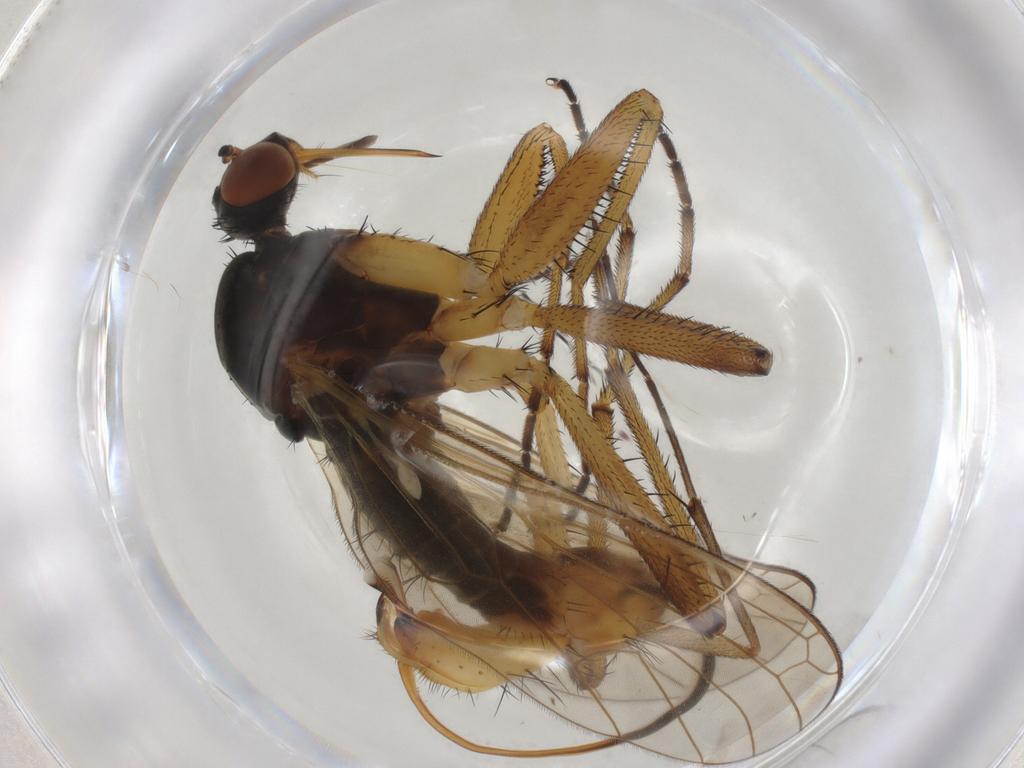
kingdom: Animalia
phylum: Arthropoda
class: Insecta
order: Diptera
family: Empididae
